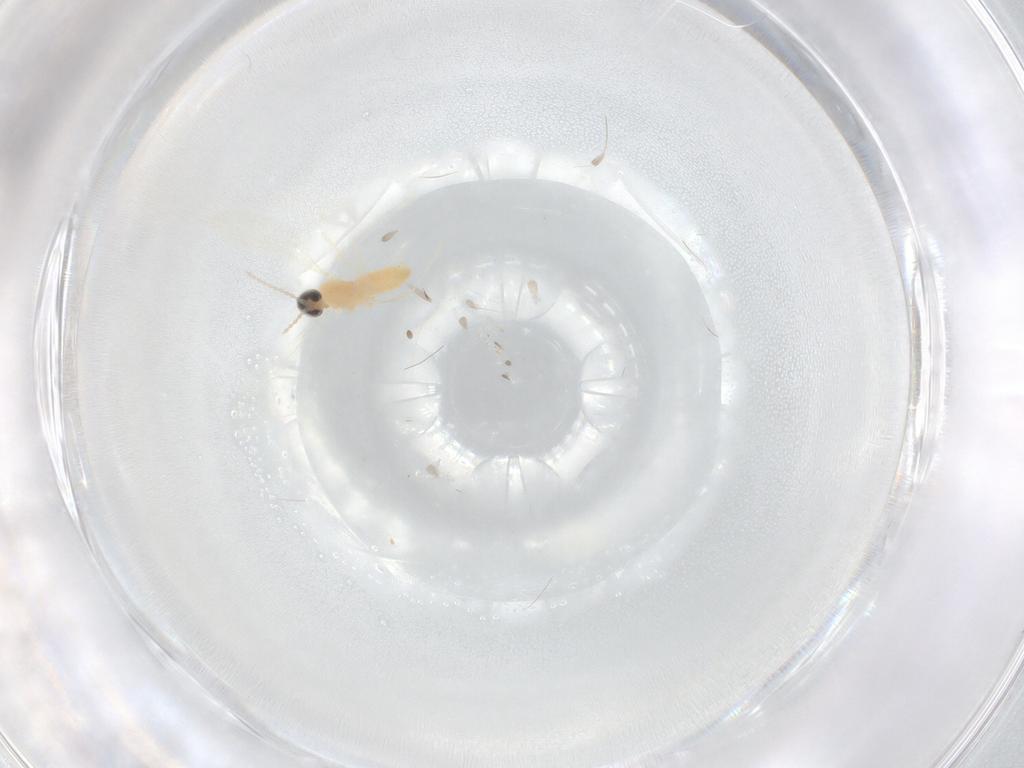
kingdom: Animalia
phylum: Arthropoda
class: Insecta
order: Diptera
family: Cecidomyiidae
